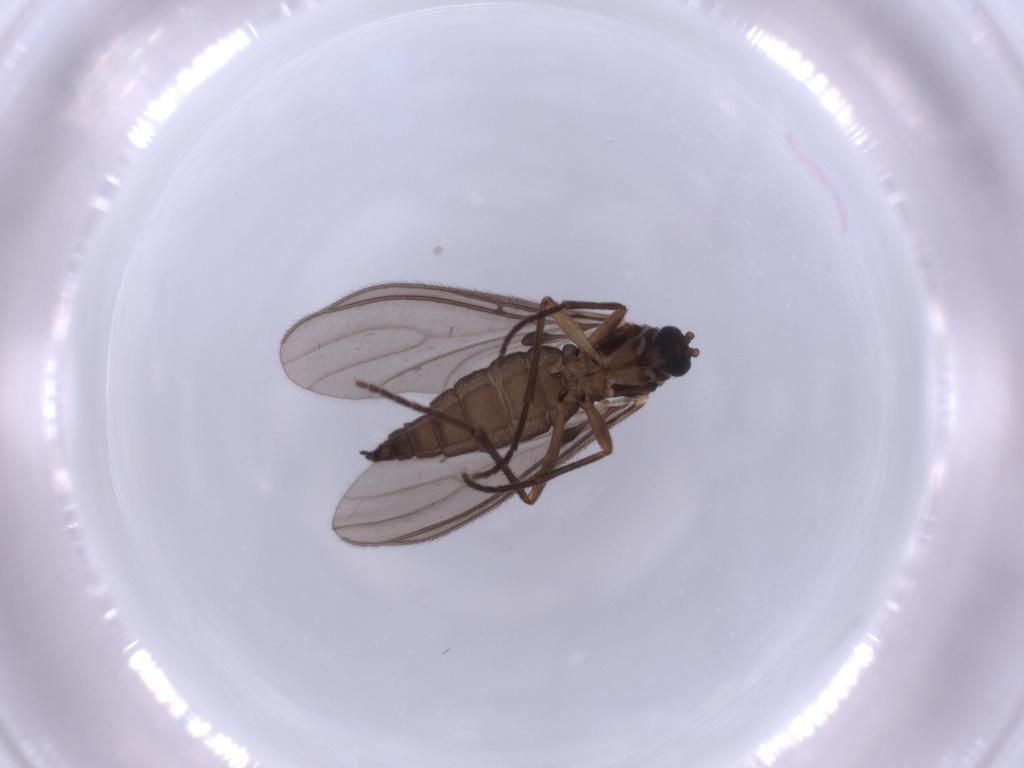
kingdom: Animalia
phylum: Arthropoda
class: Insecta
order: Diptera
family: Sciaridae
